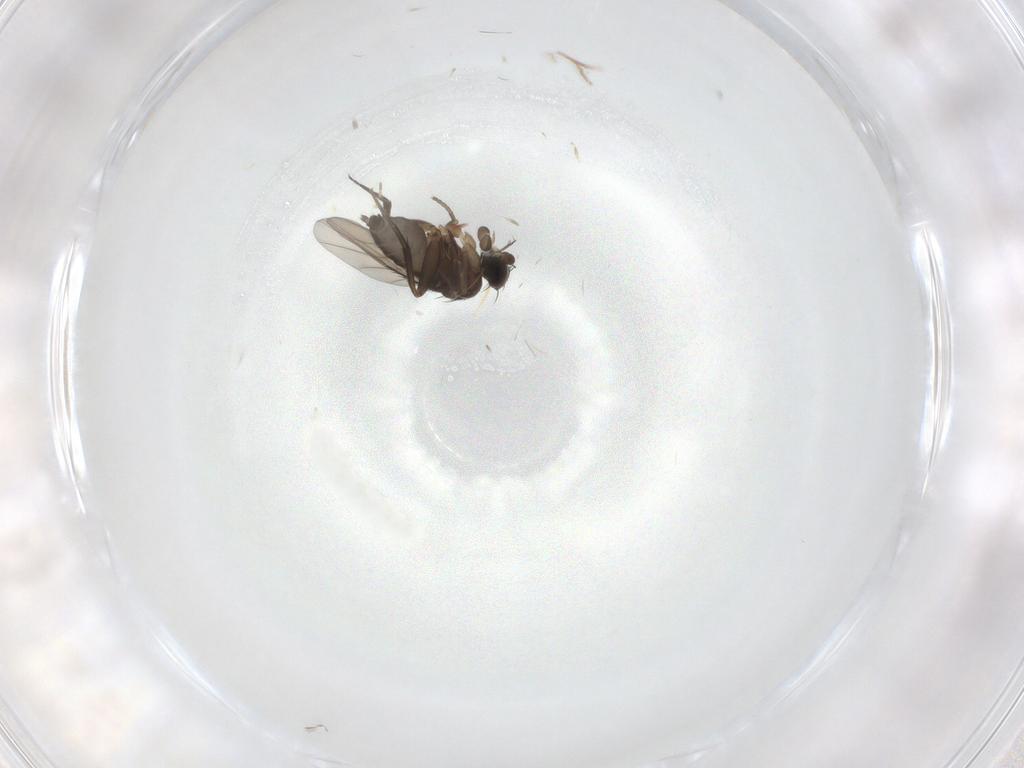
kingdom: Animalia
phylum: Arthropoda
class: Insecta
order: Diptera
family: Phoridae
